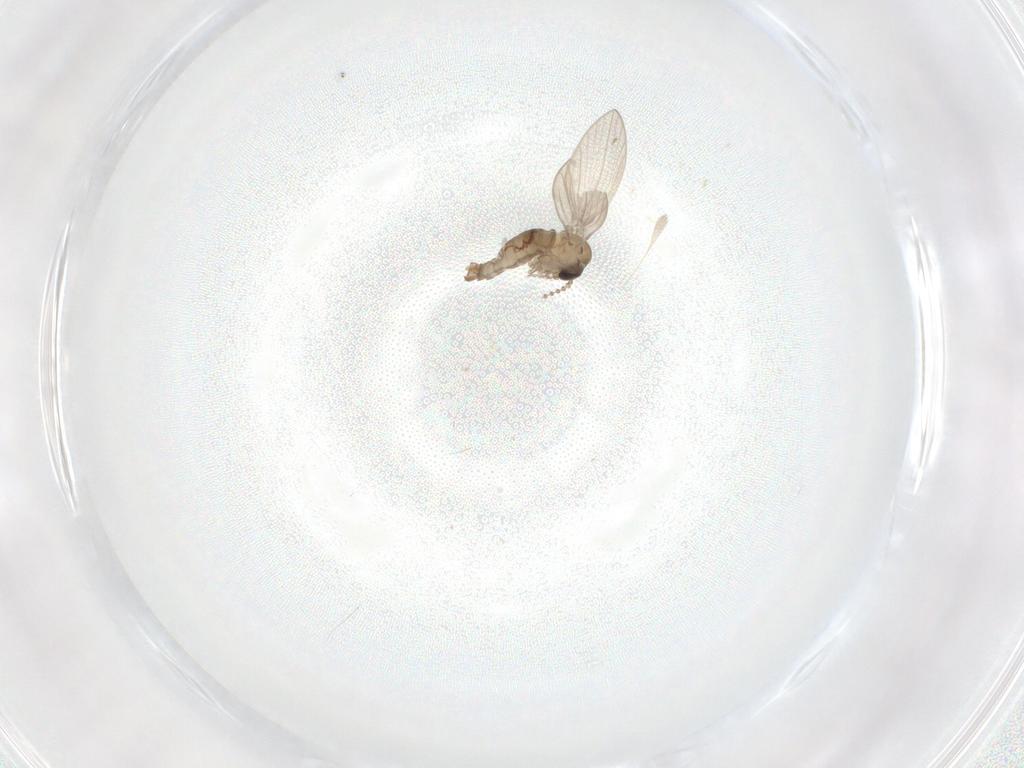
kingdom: Animalia
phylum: Arthropoda
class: Insecta
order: Diptera
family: Psychodidae
